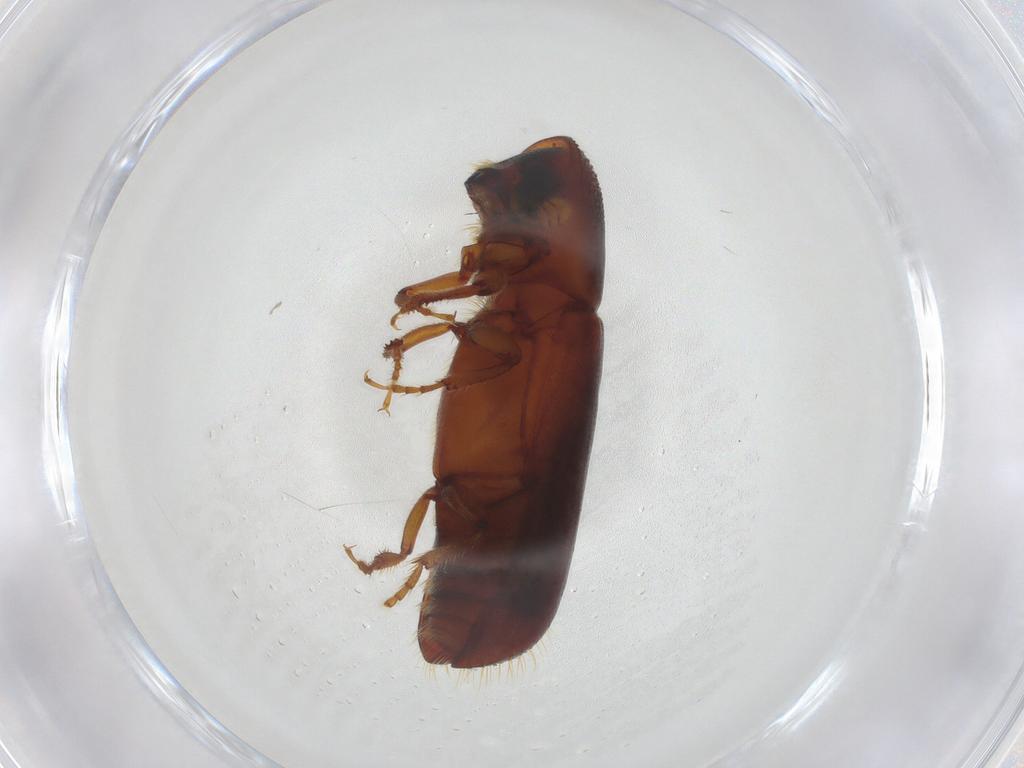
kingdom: Animalia
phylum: Arthropoda
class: Insecta
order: Coleoptera
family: Curculionidae
